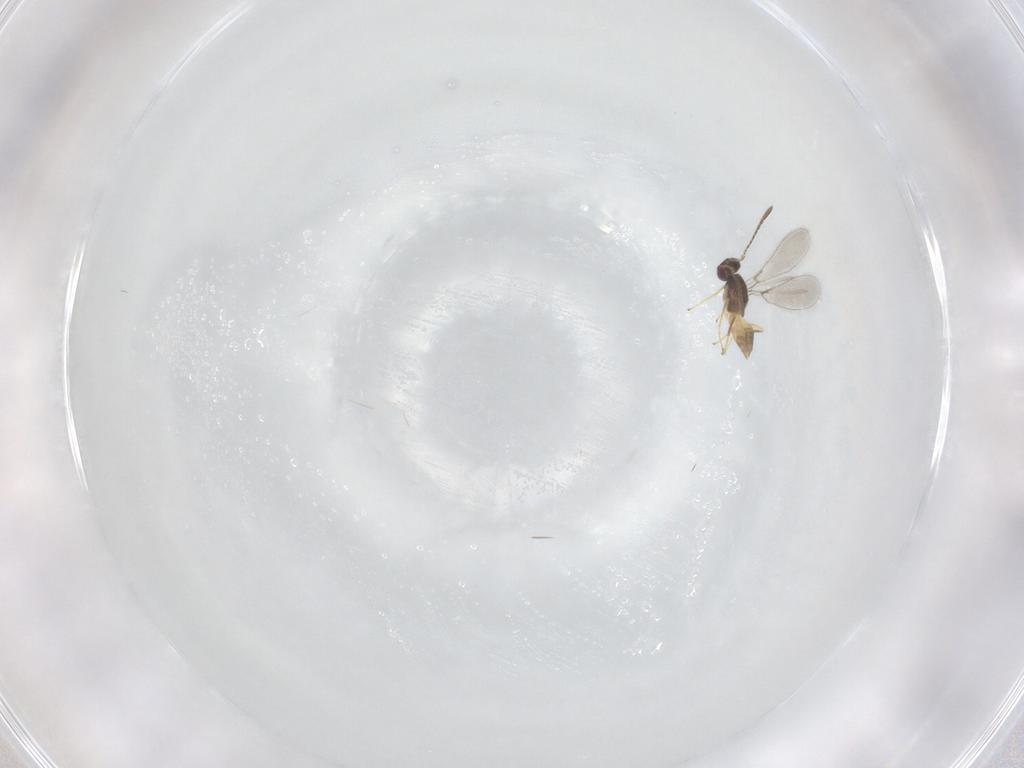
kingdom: Animalia
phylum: Arthropoda
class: Insecta
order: Hymenoptera
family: Mymaridae
